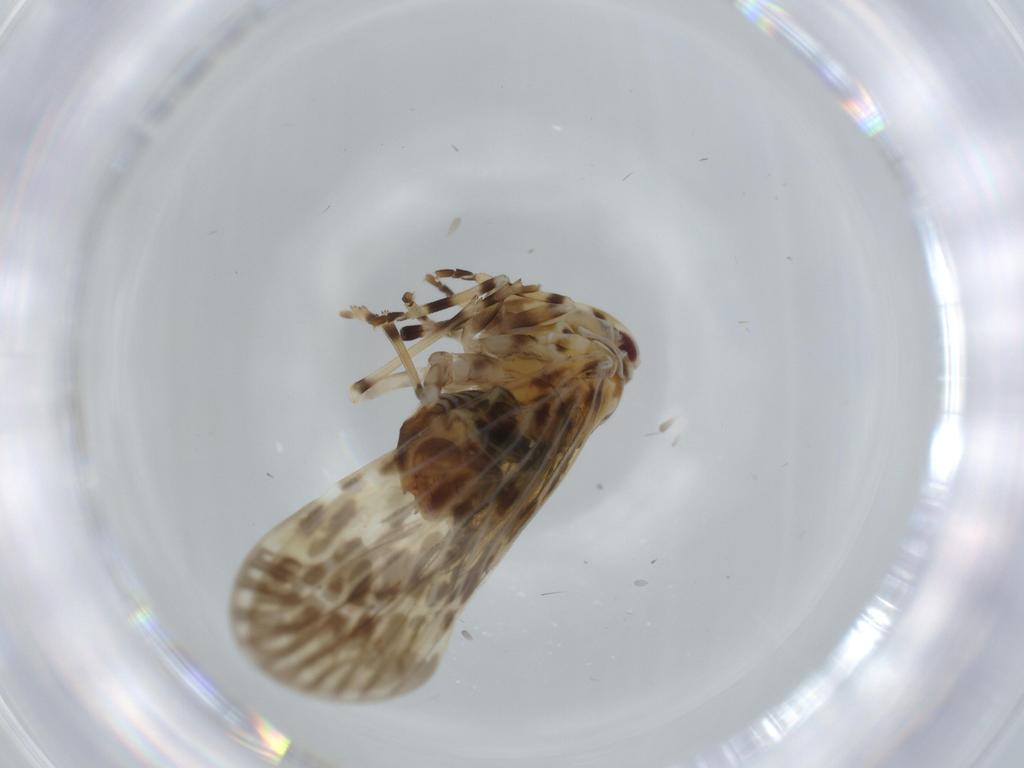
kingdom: Animalia
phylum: Arthropoda
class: Insecta
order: Hemiptera
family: Derbidae
